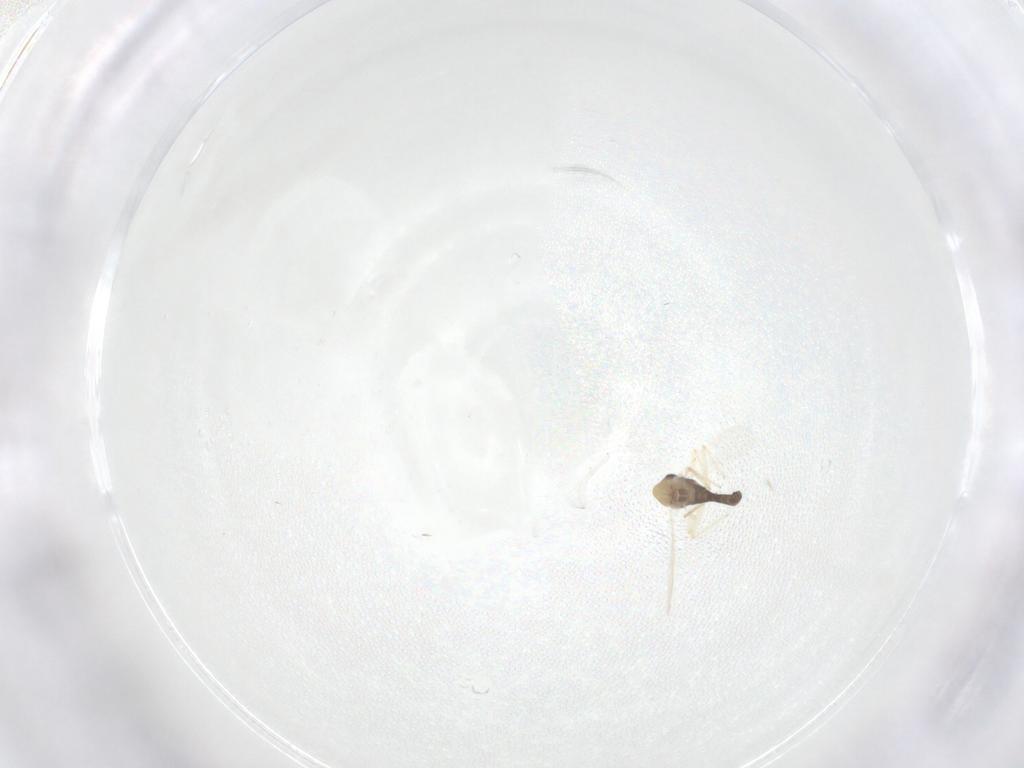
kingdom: Animalia
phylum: Arthropoda
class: Insecta
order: Diptera
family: Chironomidae
